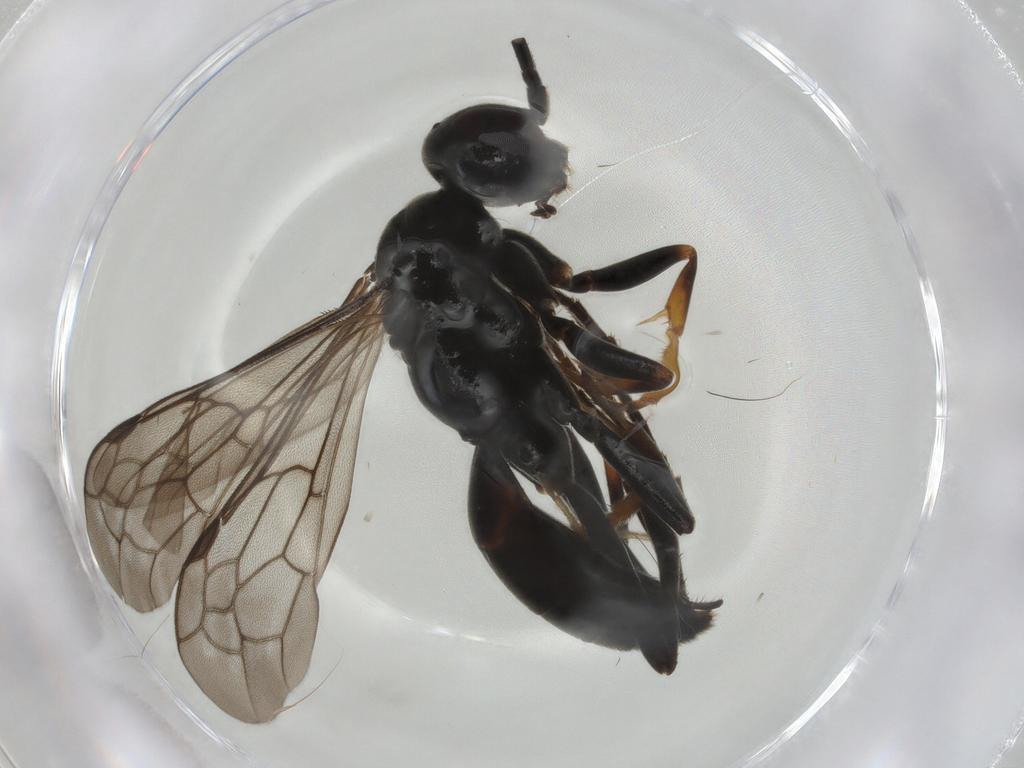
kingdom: Animalia
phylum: Arthropoda
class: Insecta
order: Hymenoptera
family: Pompilidae
